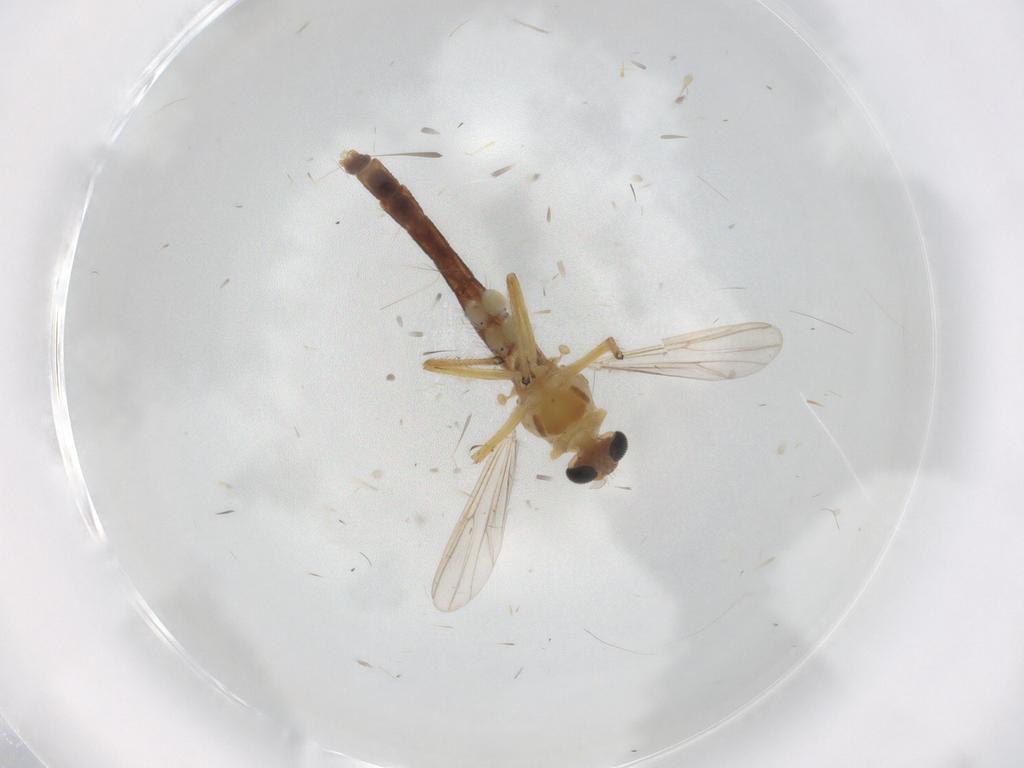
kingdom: Animalia
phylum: Arthropoda
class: Insecta
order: Diptera
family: Chironomidae
